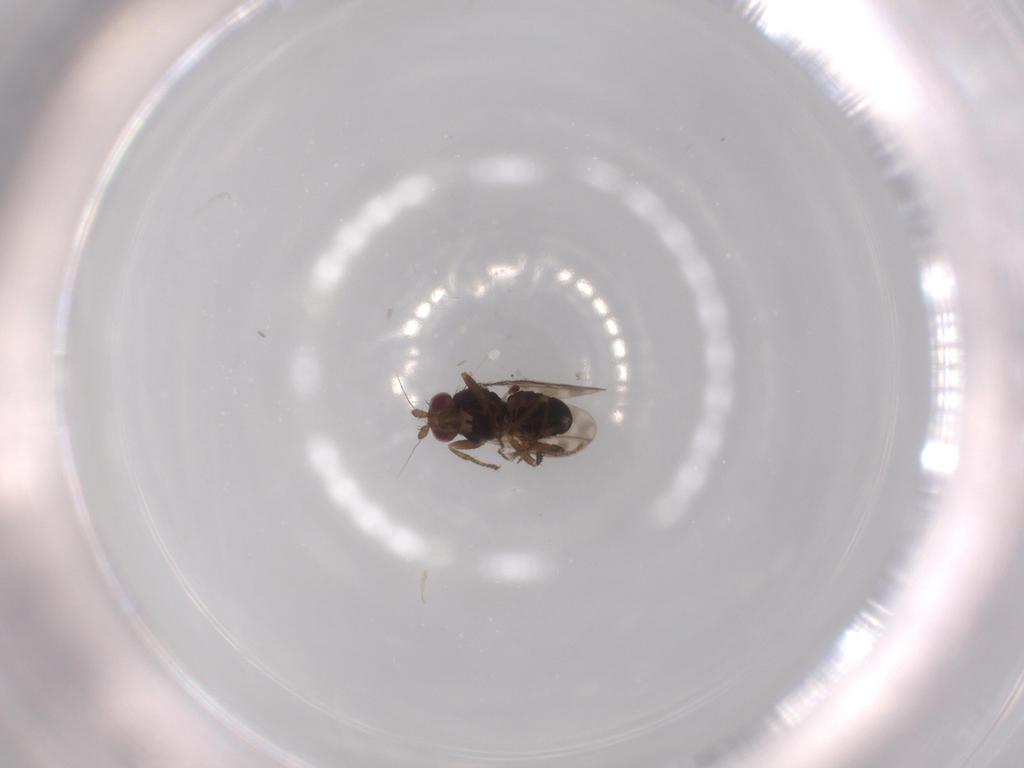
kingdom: Animalia
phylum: Arthropoda
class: Insecta
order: Diptera
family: Sphaeroceridae
